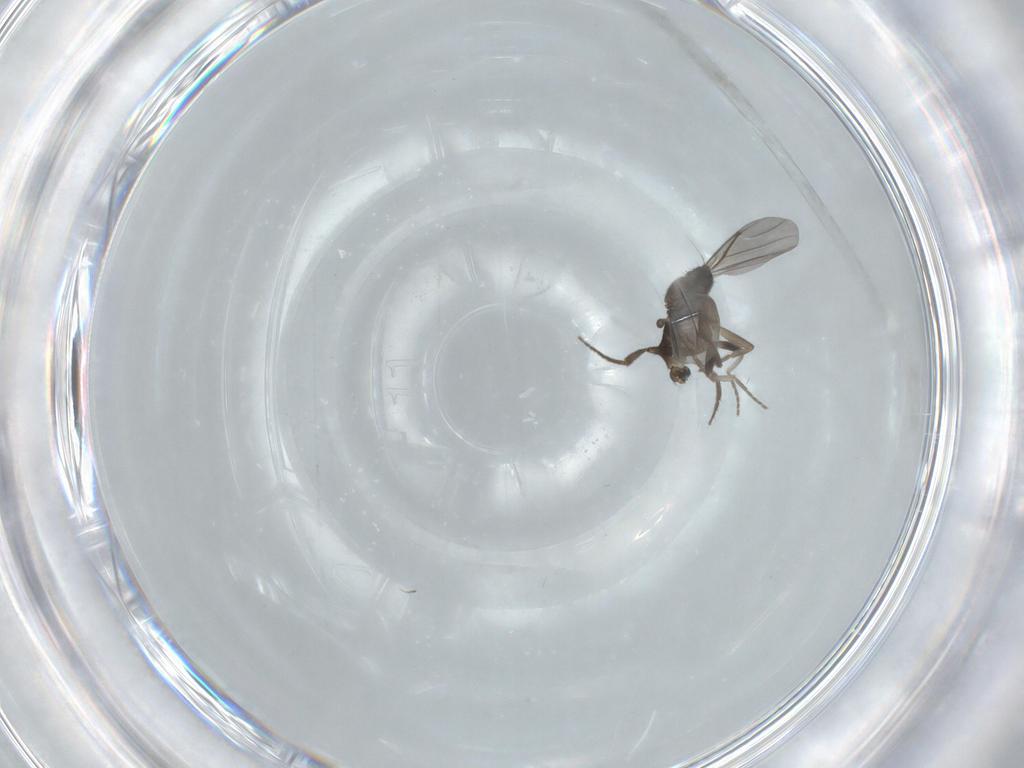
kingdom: Animalia
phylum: Arthropoda
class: Insecta
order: Diptera
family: Phoridae
